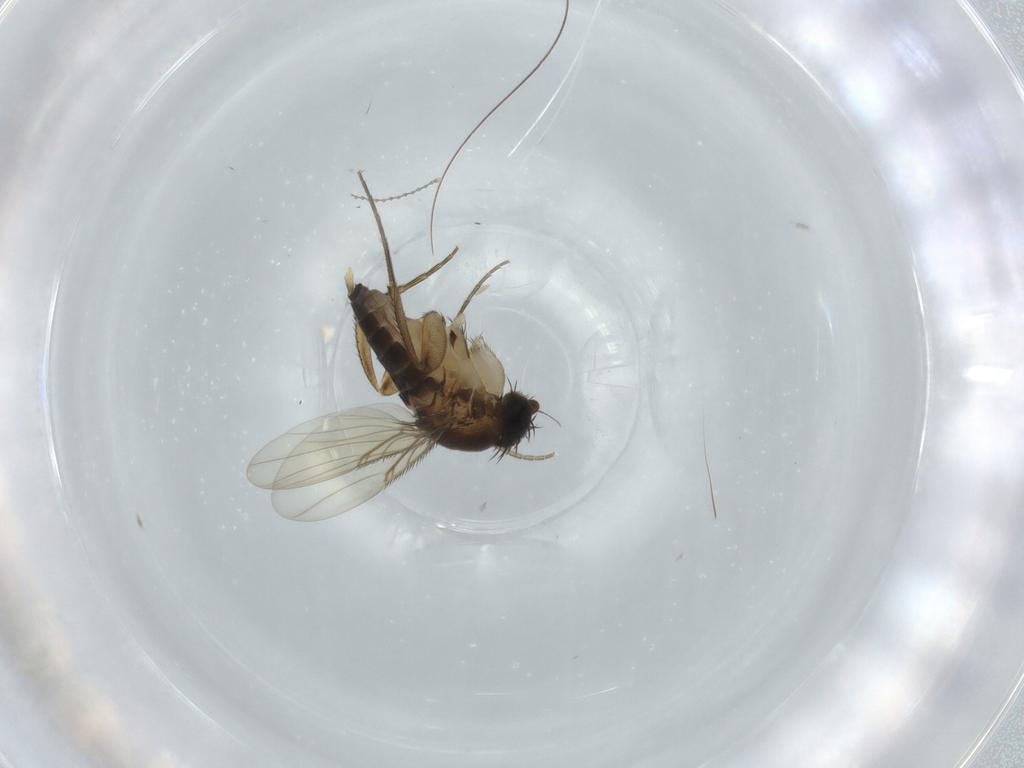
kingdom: Animalia
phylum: Arthropoda
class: Insecta
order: Diptera
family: Cecidomyiidae
